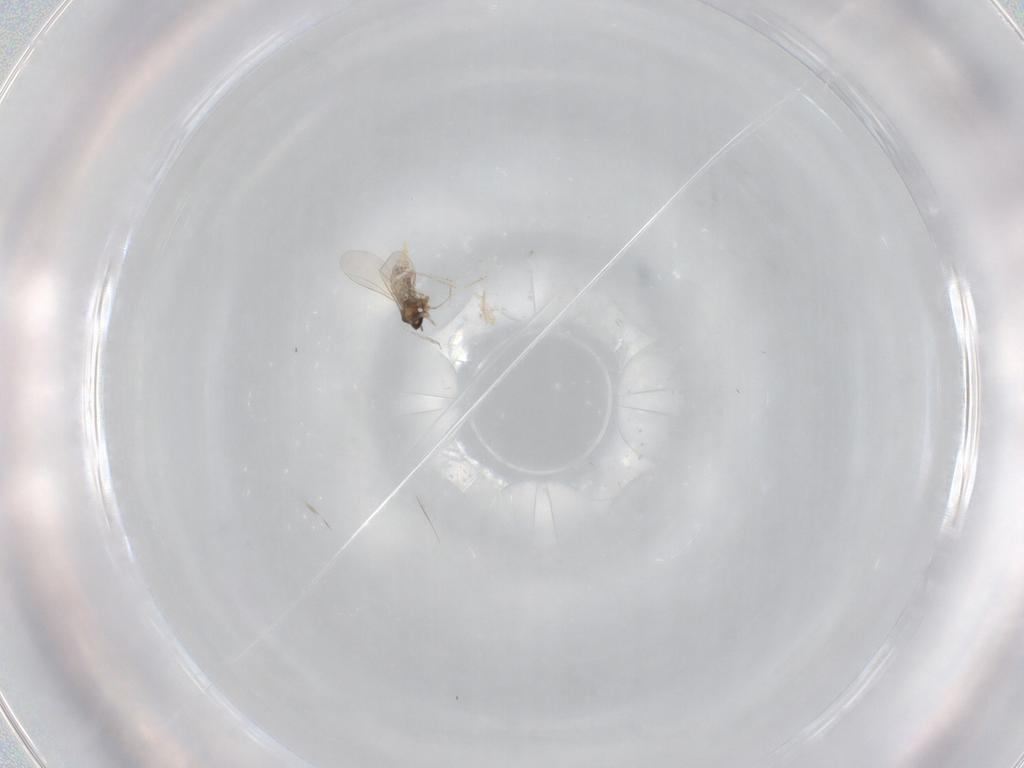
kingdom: Animalia
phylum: Arthropoda
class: Insecta
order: Diptera
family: Cecidomyiidae
